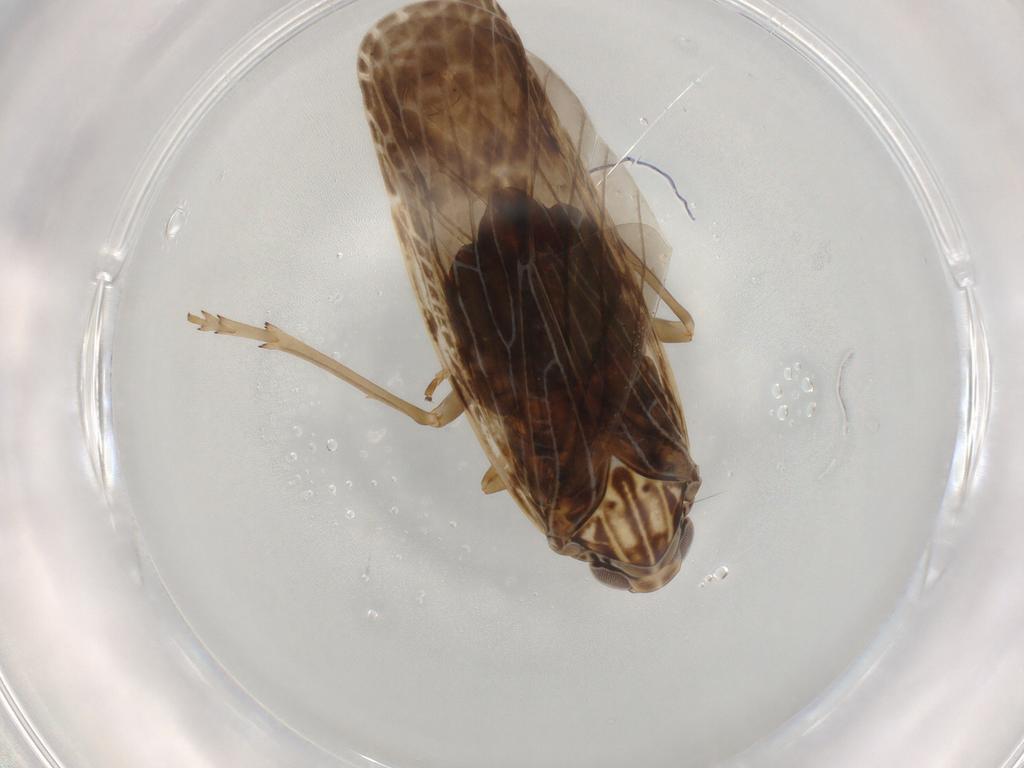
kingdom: Animalia
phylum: Arthropoda
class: Insecta
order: Hemiptera
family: Achilidae
